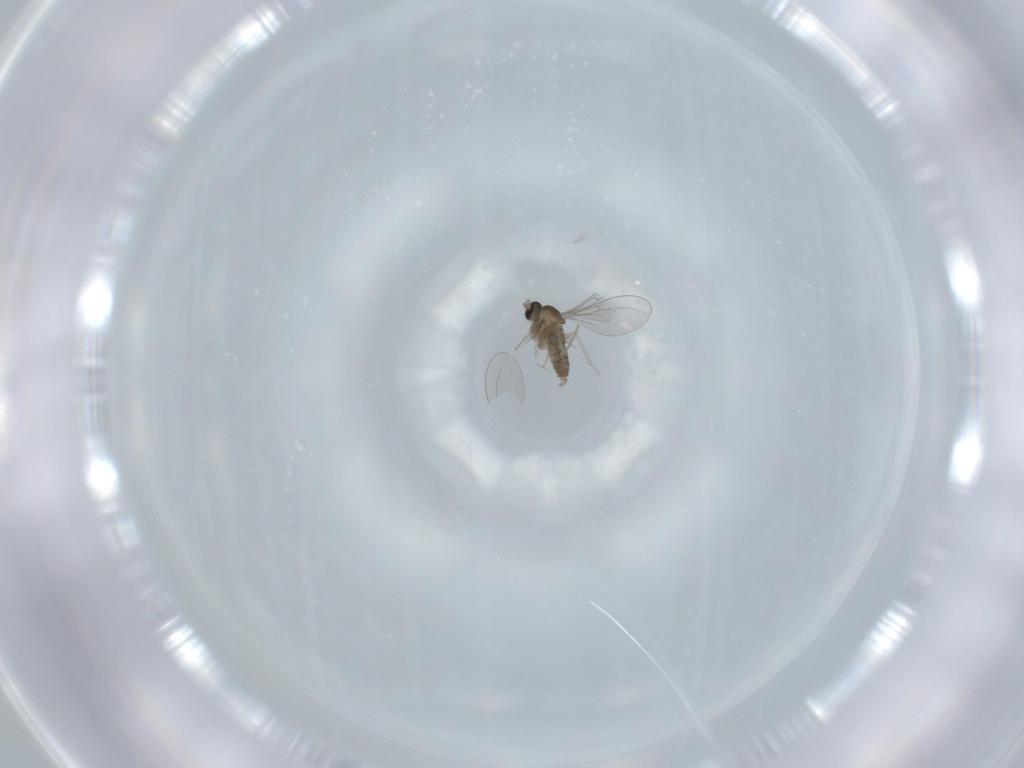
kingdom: Animalia
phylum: Arthropoda
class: Insecta
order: Diptera
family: Cecidomyiidae
